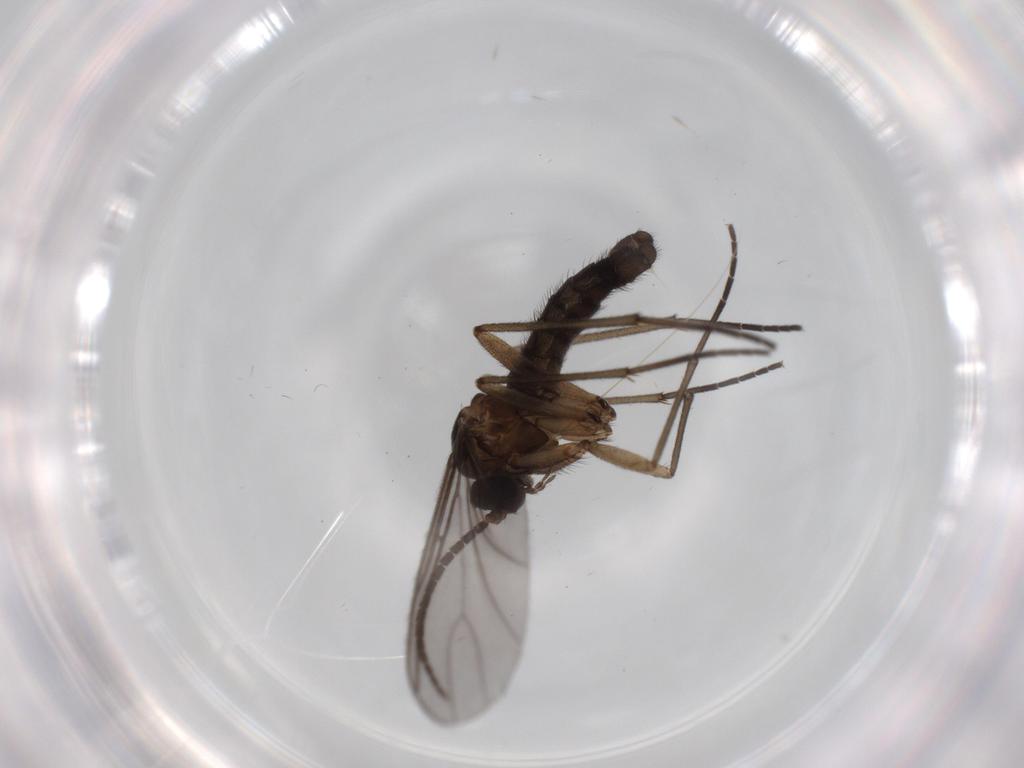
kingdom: Animalia
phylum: Arthropoda
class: Insecta
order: Diptera
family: Sciaridae
